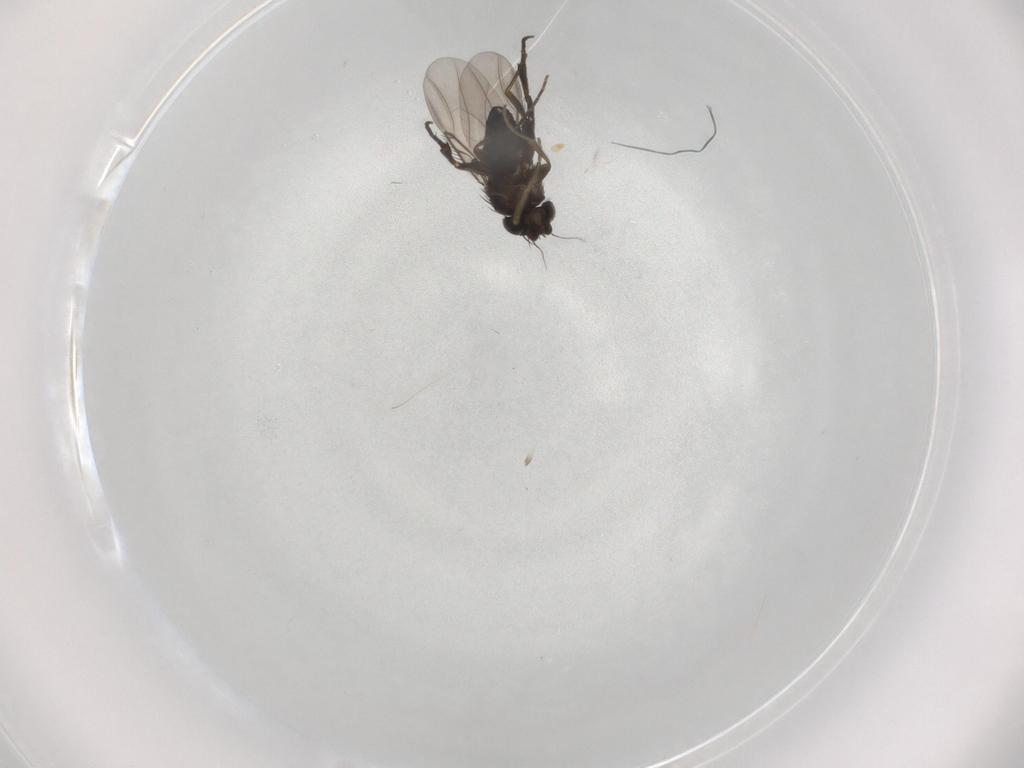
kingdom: Animalia
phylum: Arthropoda
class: Insecta
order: Diptera
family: Phoridae
